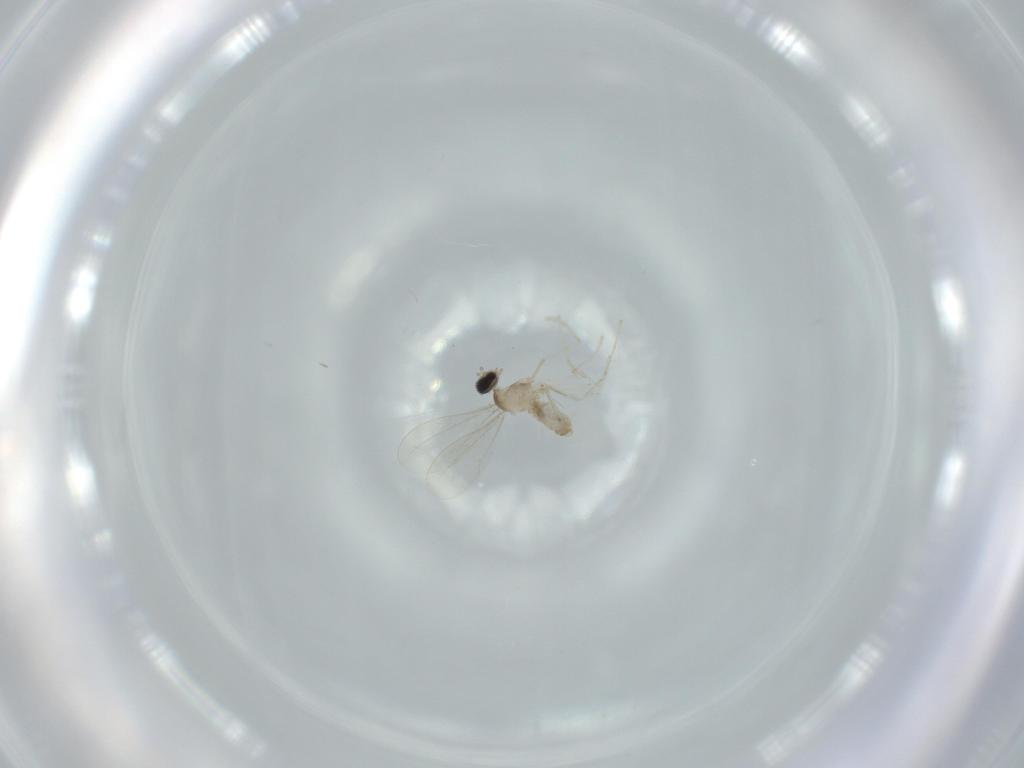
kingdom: Animalia
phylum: Arthropoda
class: Insecta
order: Diptera
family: Cecidomyiidae
